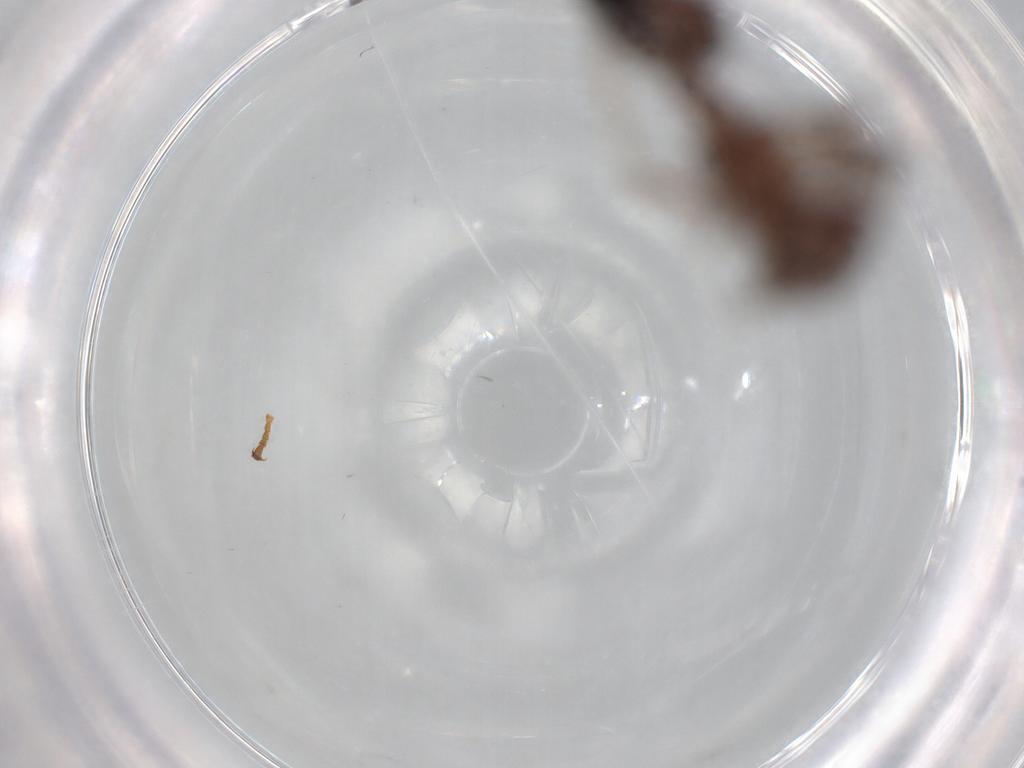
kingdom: Animalia
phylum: Arthropoda
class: Insecta
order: Hymenoptera
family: Formicidae
